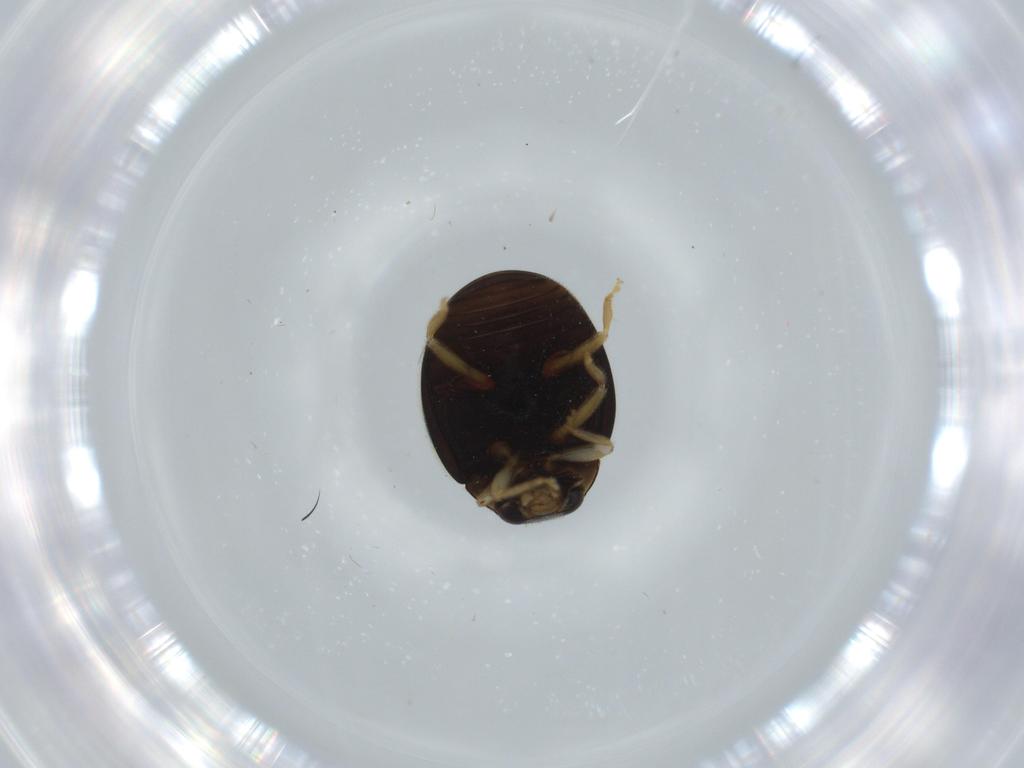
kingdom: Animalia
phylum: Arthropoda
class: Insecta
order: Coleoptera
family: Coccinellidae
